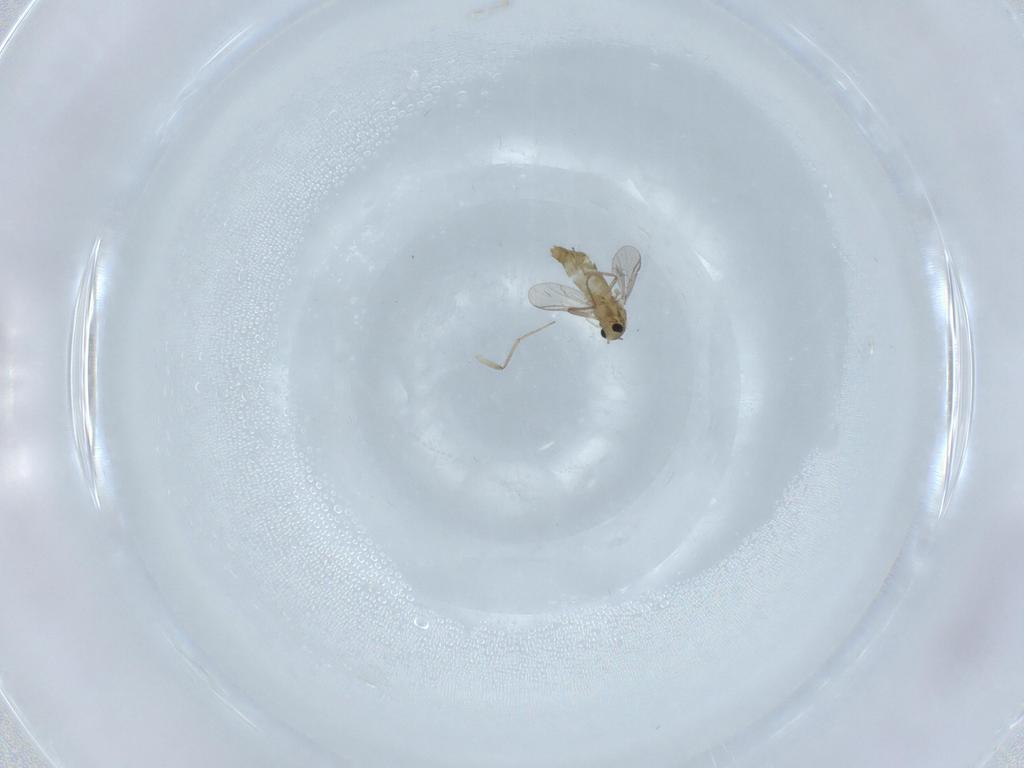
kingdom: Animalia
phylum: Arthropoda
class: Insecta
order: Diptera
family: Chironomidae
